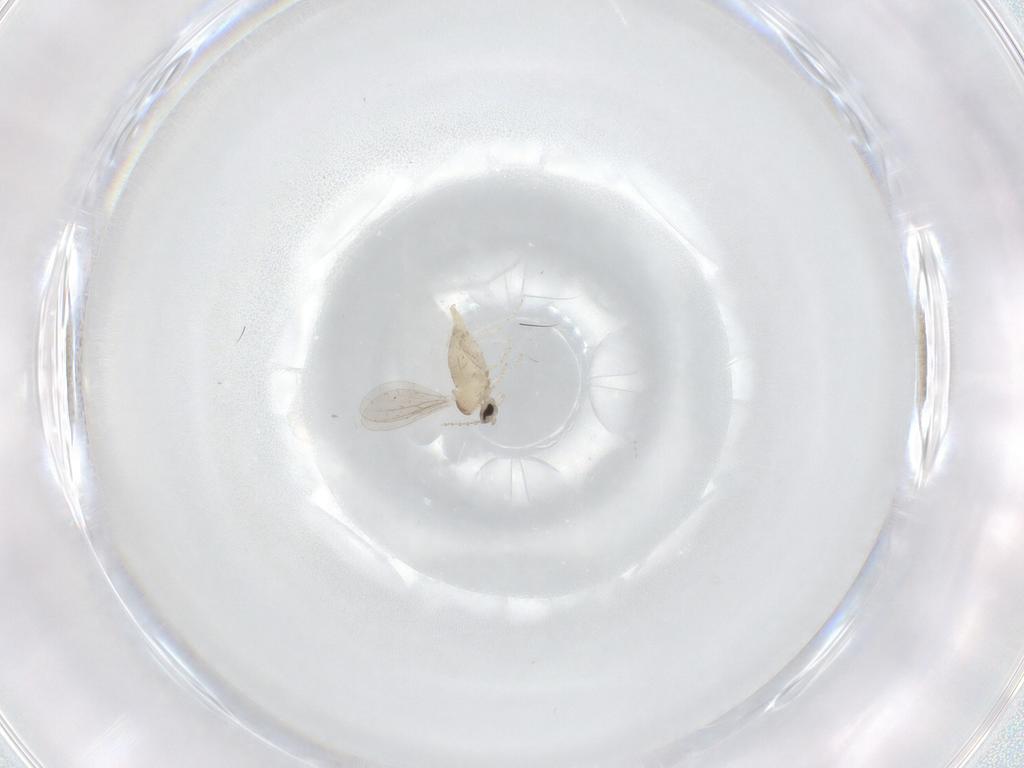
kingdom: Animalia
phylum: Arthropoda
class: Insecta
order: Diptera
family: Cecidomyiidae
